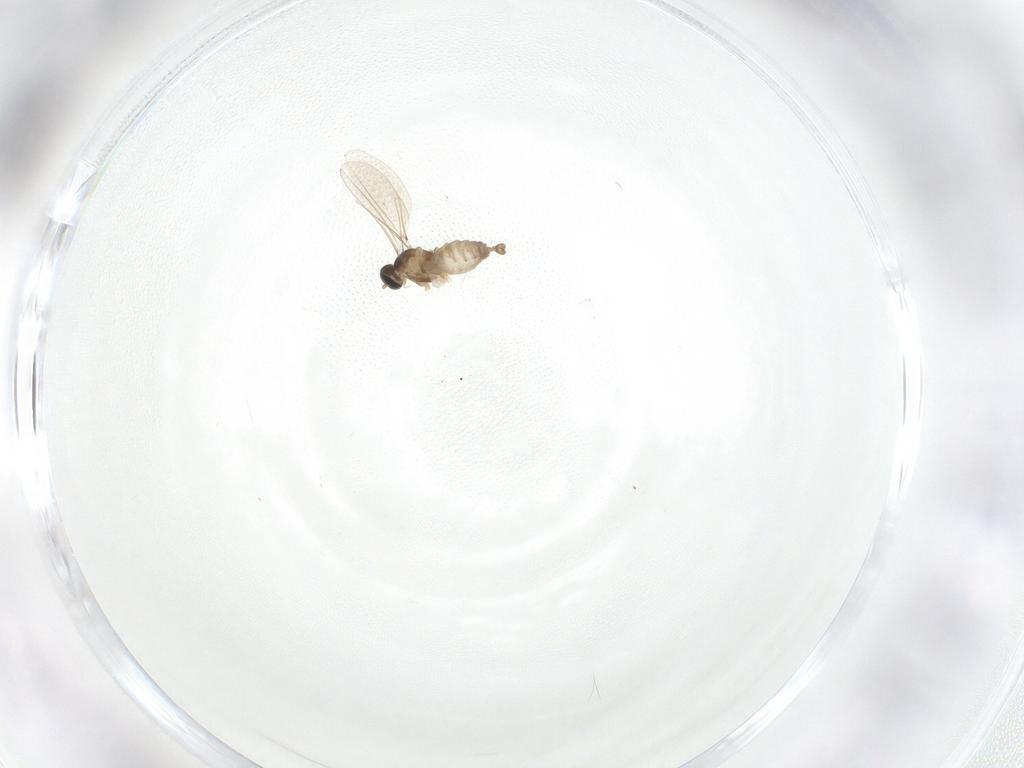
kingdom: Animalia
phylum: Arthropoda
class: Insecta
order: Diptera
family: Cecidomyiidae
